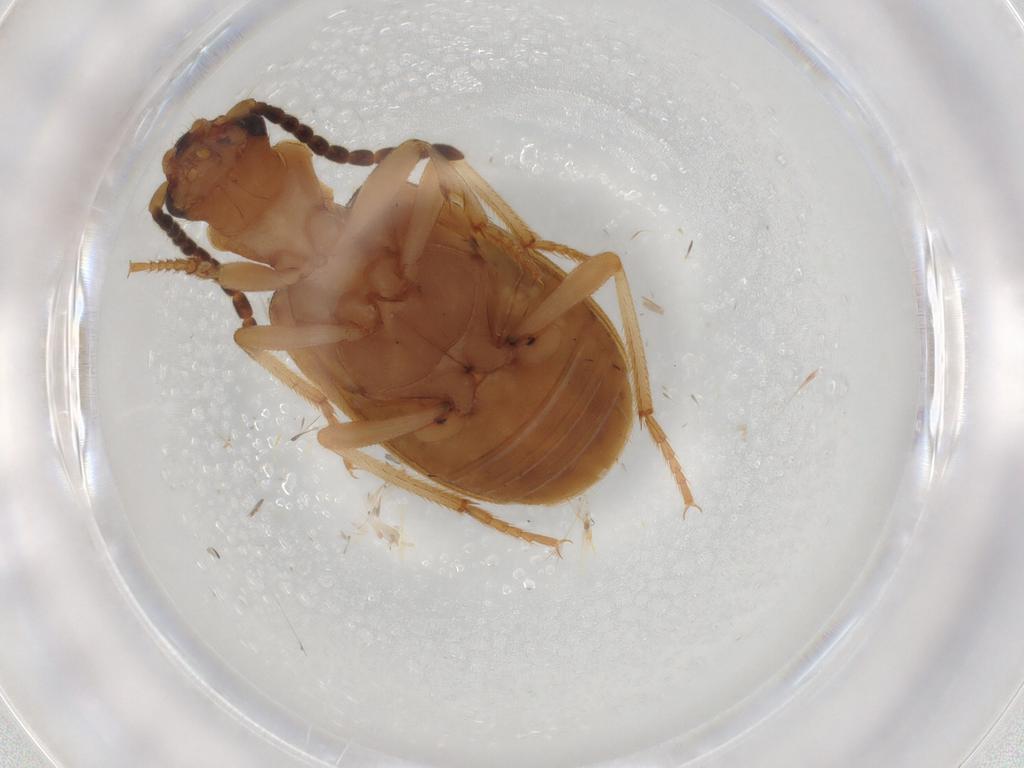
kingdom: Animalia
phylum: Arthropoda
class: Insecta
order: Coleoptera
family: Carabidae
